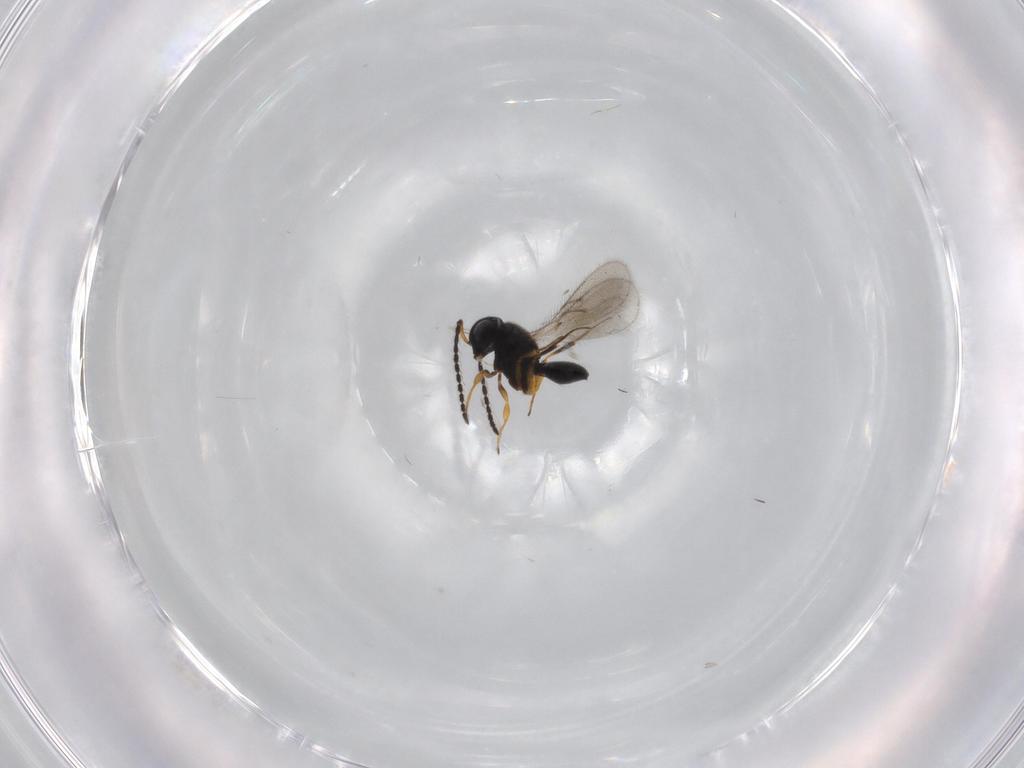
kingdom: Animalia
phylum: Arthropoda
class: Insecta
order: Hymenoptera
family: Scelionidae
